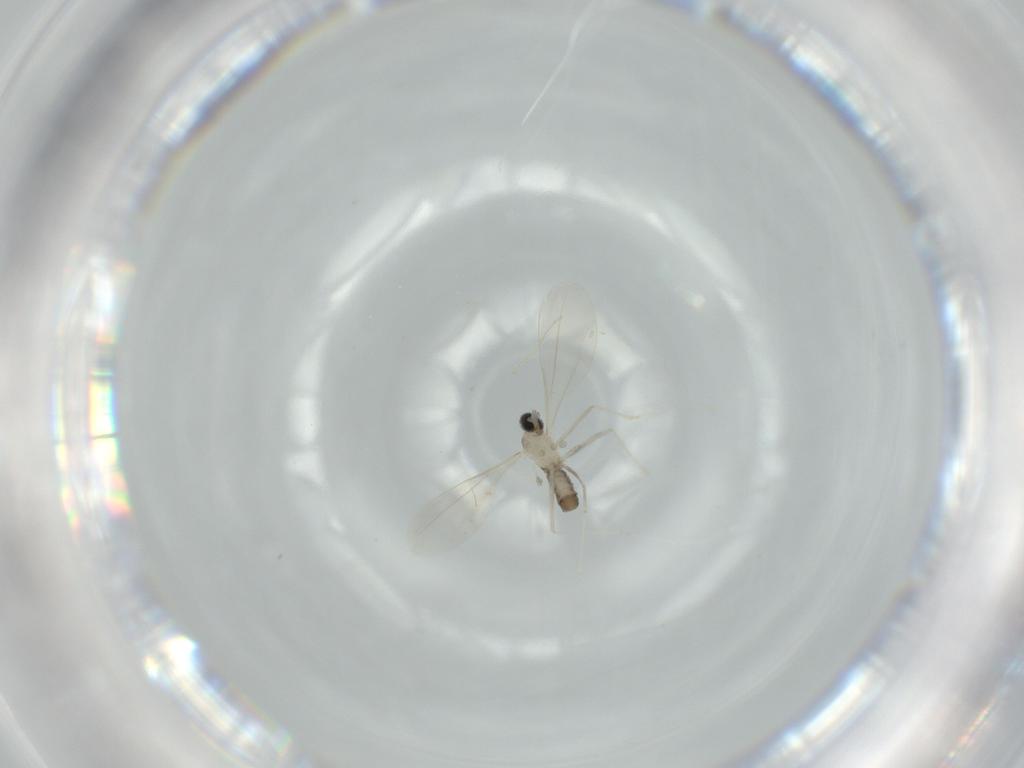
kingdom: Animalia
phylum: Arthropoda
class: Insecta
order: Diptera
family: Cecidomyiidae
